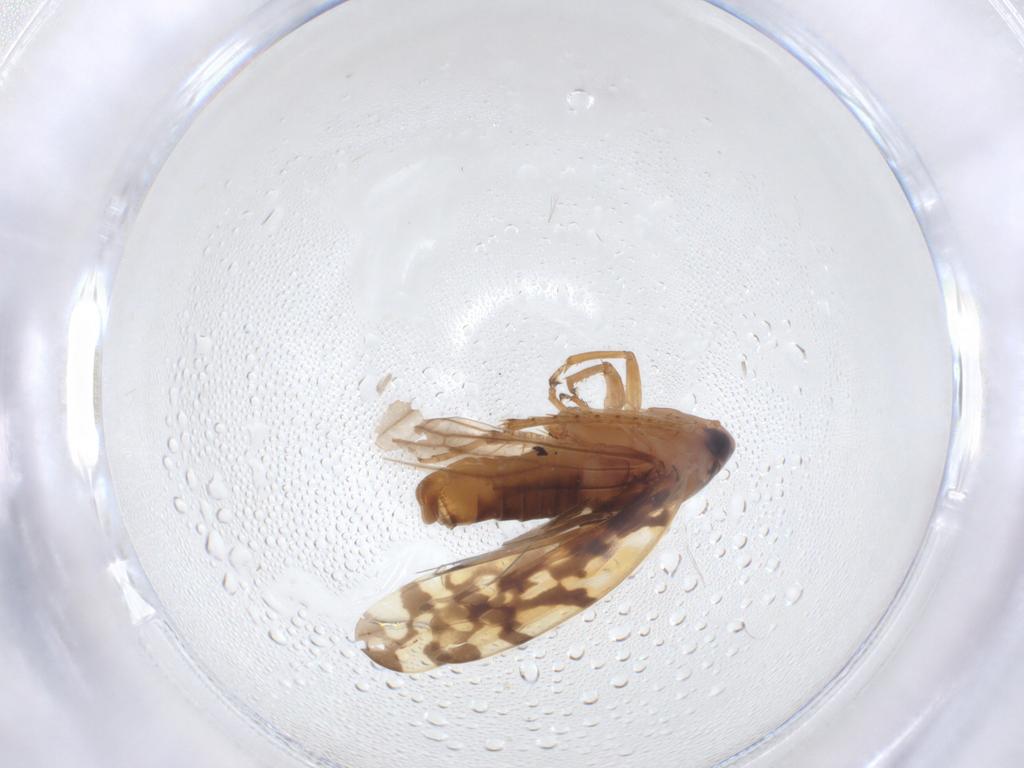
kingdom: Animalia
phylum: Arthropoda
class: Insecta
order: Hemiptera
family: Cicadellidae
